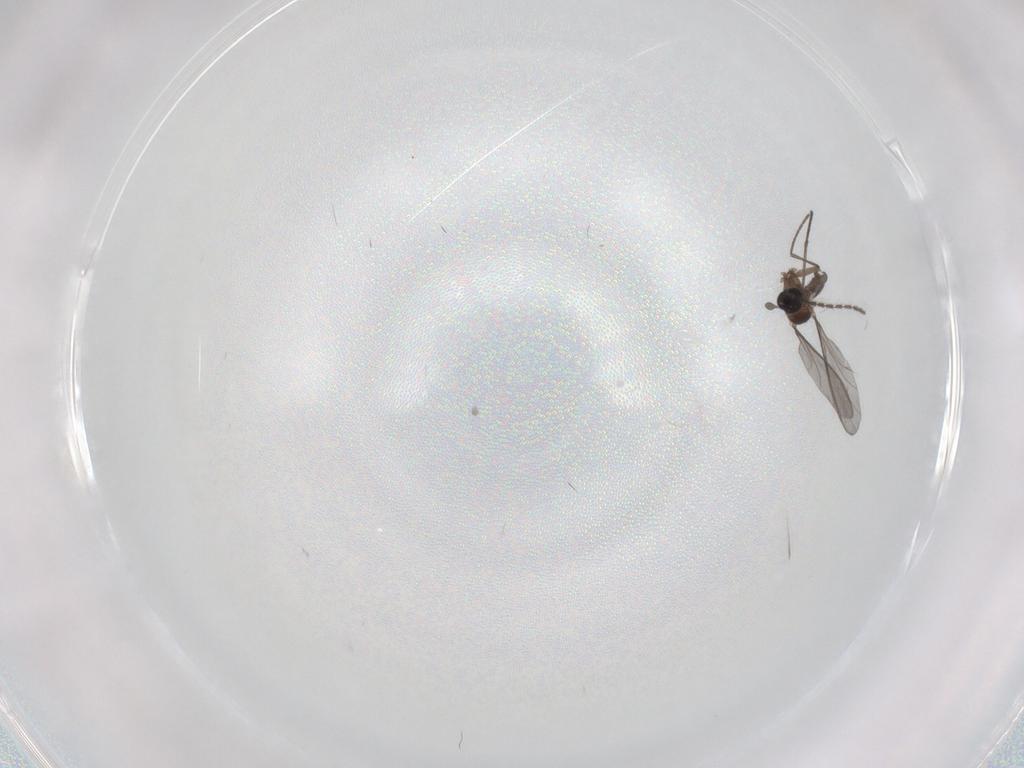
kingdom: Animalia
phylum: Arthropoda
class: Insecta
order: Diptera
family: Sciaridae
